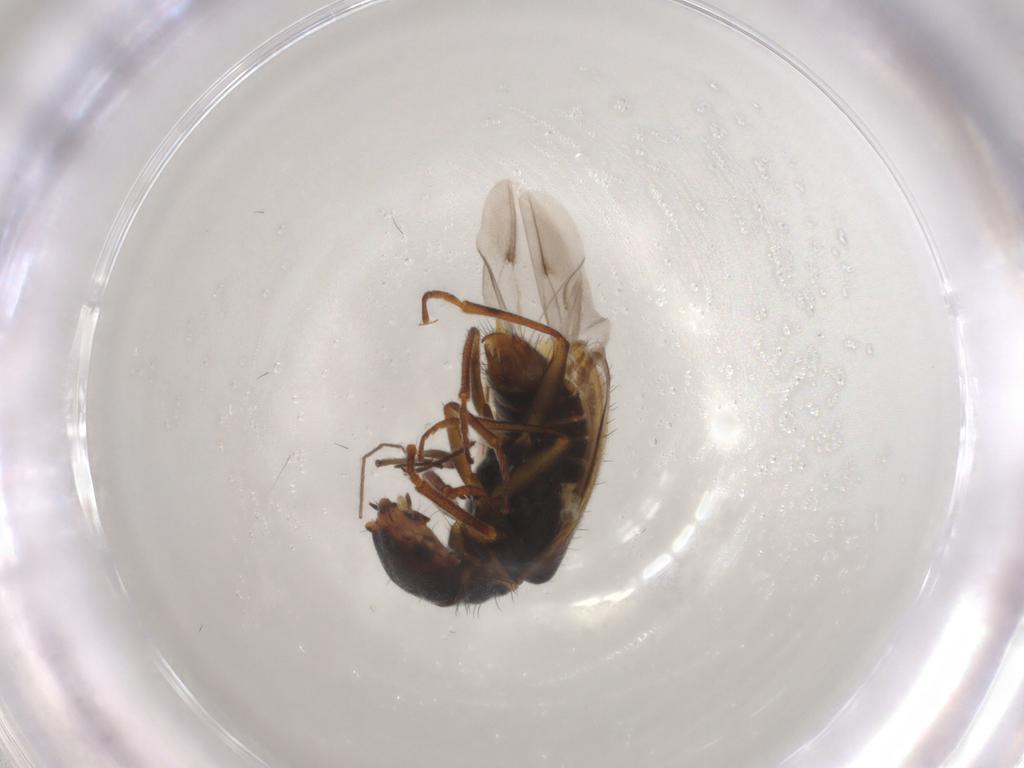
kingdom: Animalia
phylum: Arthropoda
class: Insecta
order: Coleoptera
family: Melyridae
